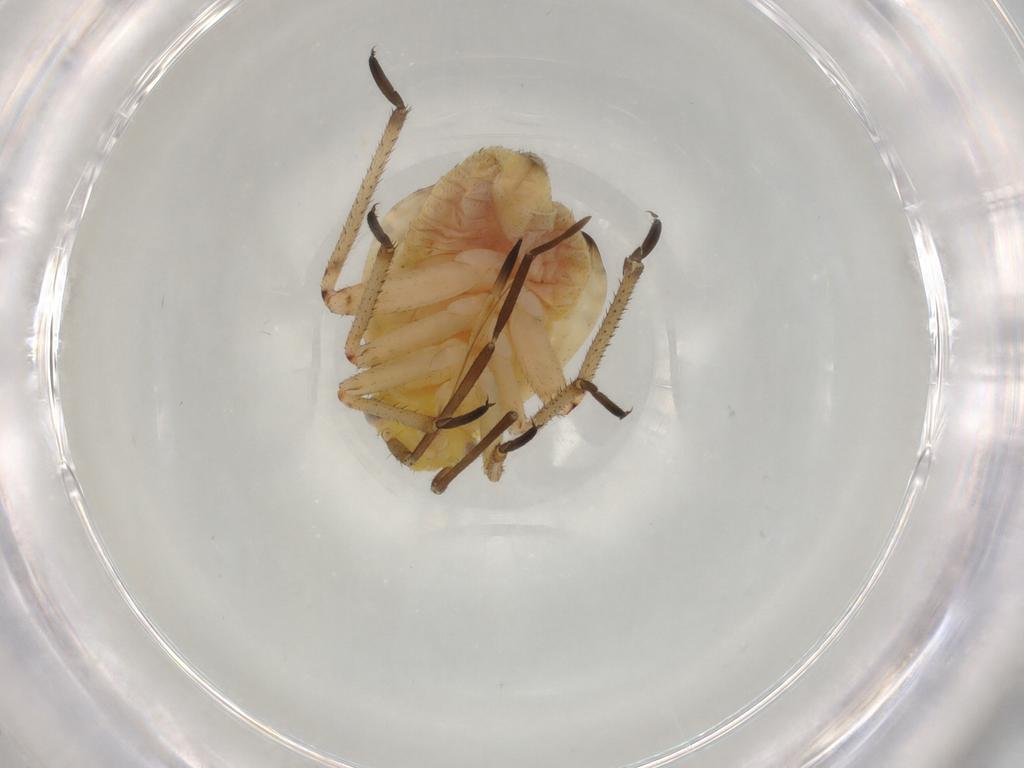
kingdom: Animalia
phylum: Arthropoda
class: Insecta
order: Hemiptera
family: Miridae
